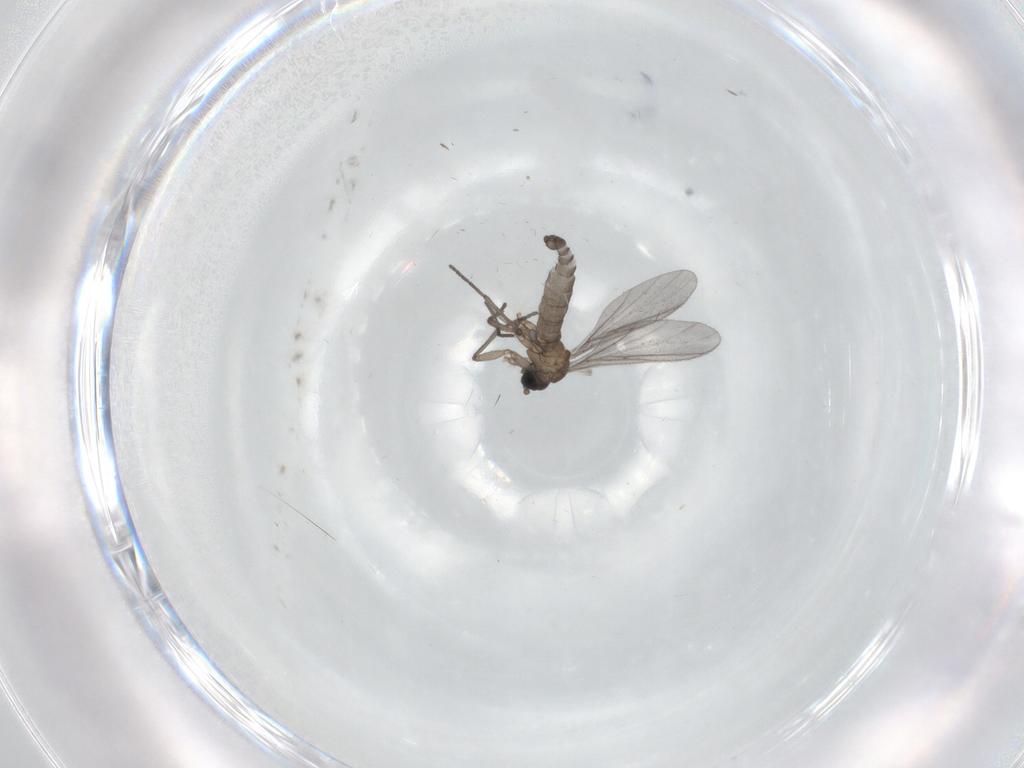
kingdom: Animalia
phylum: Arthropoda
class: Insecta
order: Diptera
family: Sciaridae
